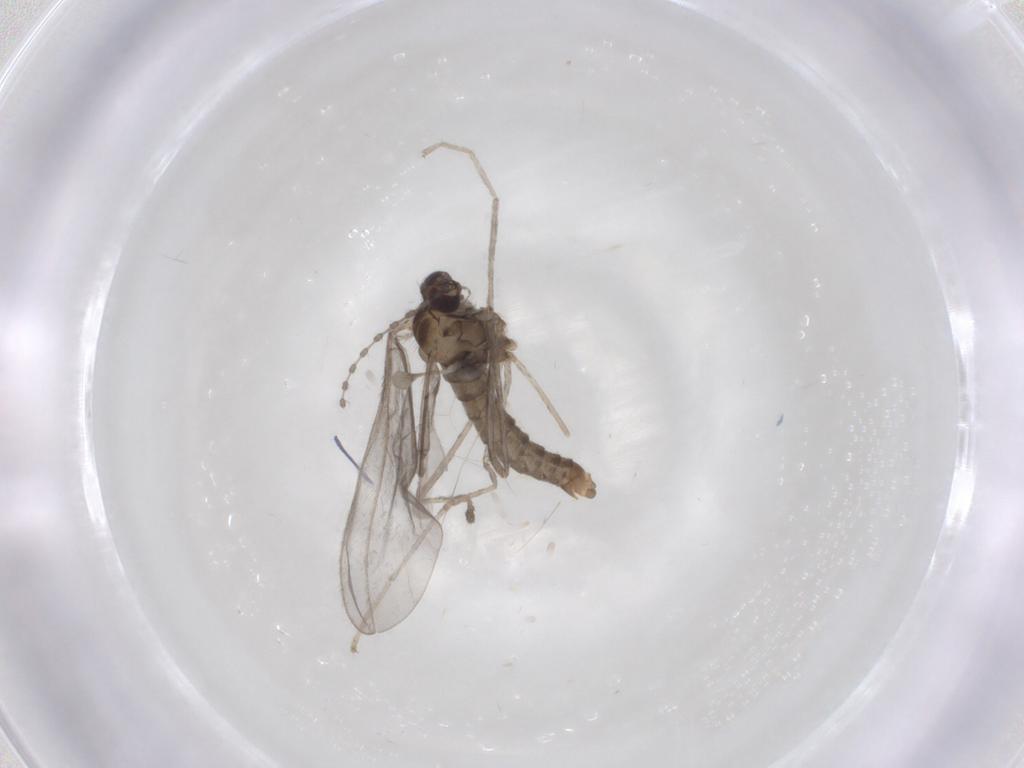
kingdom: Animalia
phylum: Arthropoda
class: Insecta
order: Diptera
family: Cecidomyiidae
